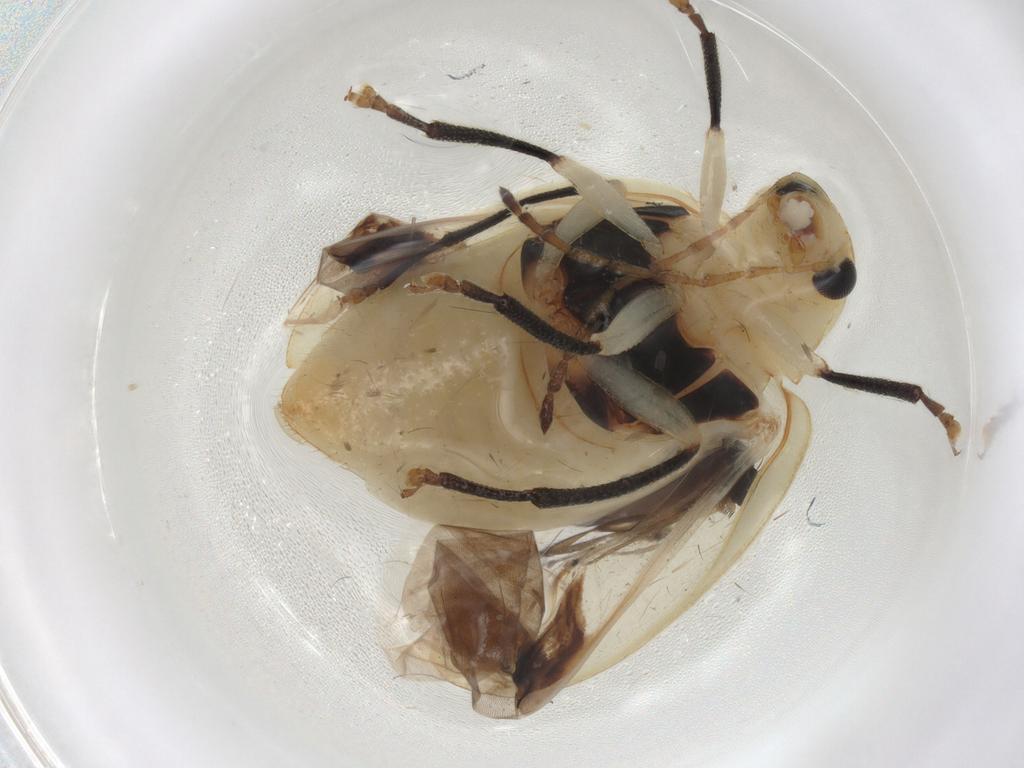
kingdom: Animalia
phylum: Arthropoda
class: Insecta
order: Coleoptera
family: Chrysomelidae
